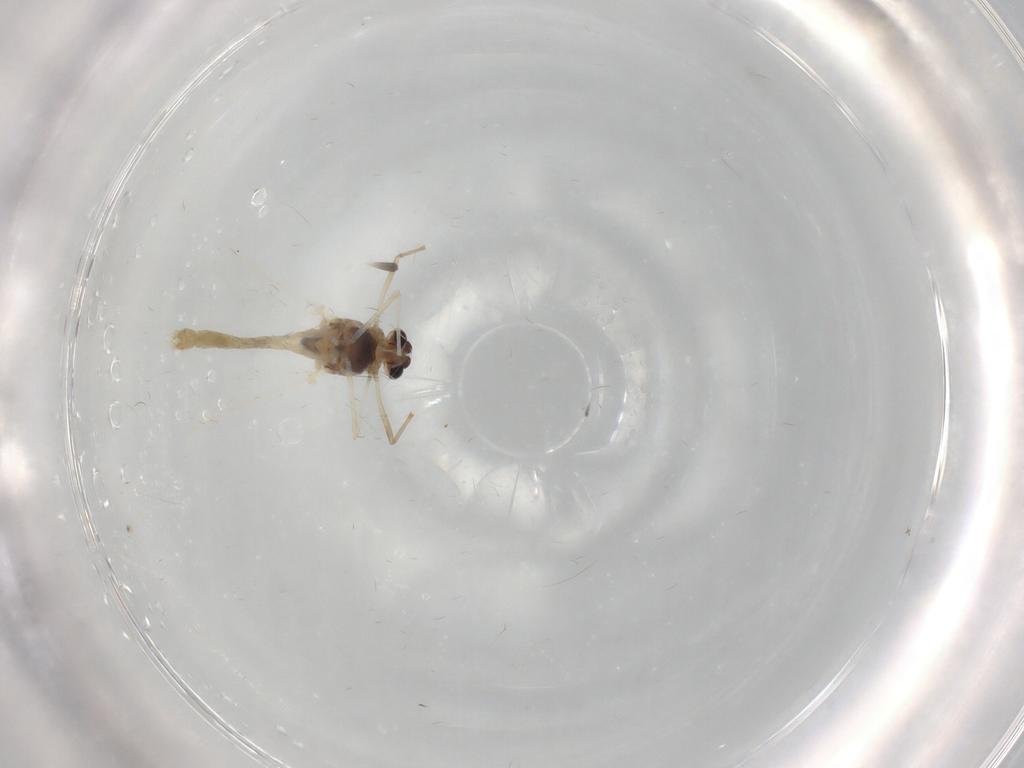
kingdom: Animalia
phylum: Arthropoda
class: Insecta
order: Diptera
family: Chironomidae
